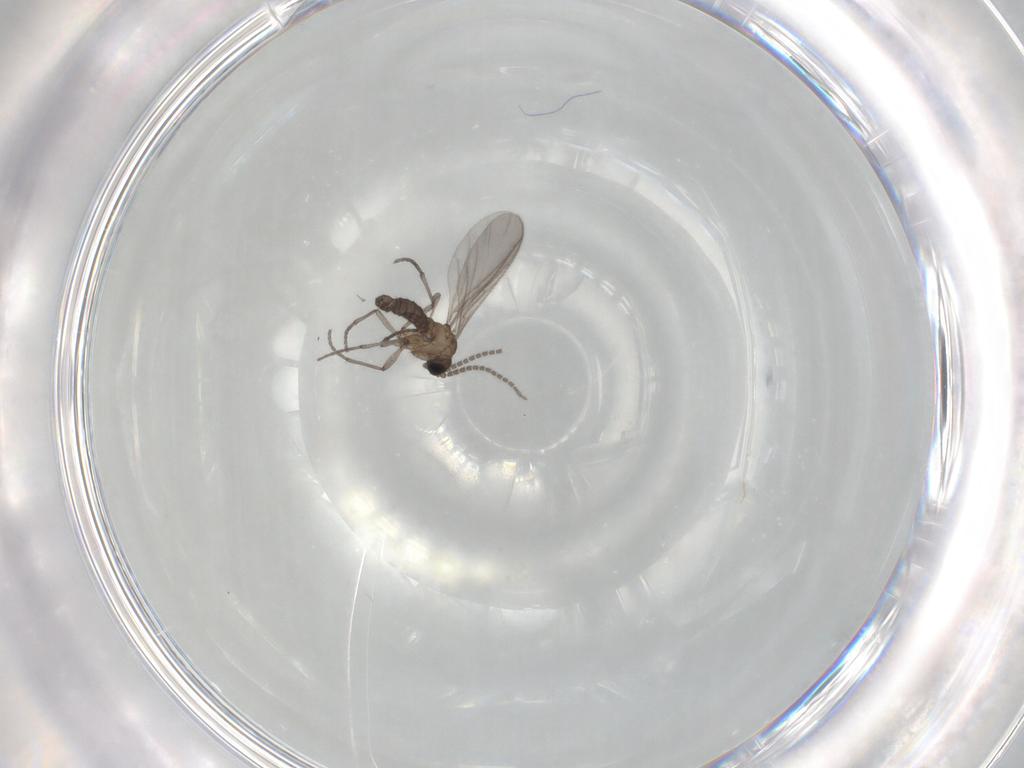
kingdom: Animalia
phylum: Arthropoda
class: Insecta
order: Diptera
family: Sciaridae
